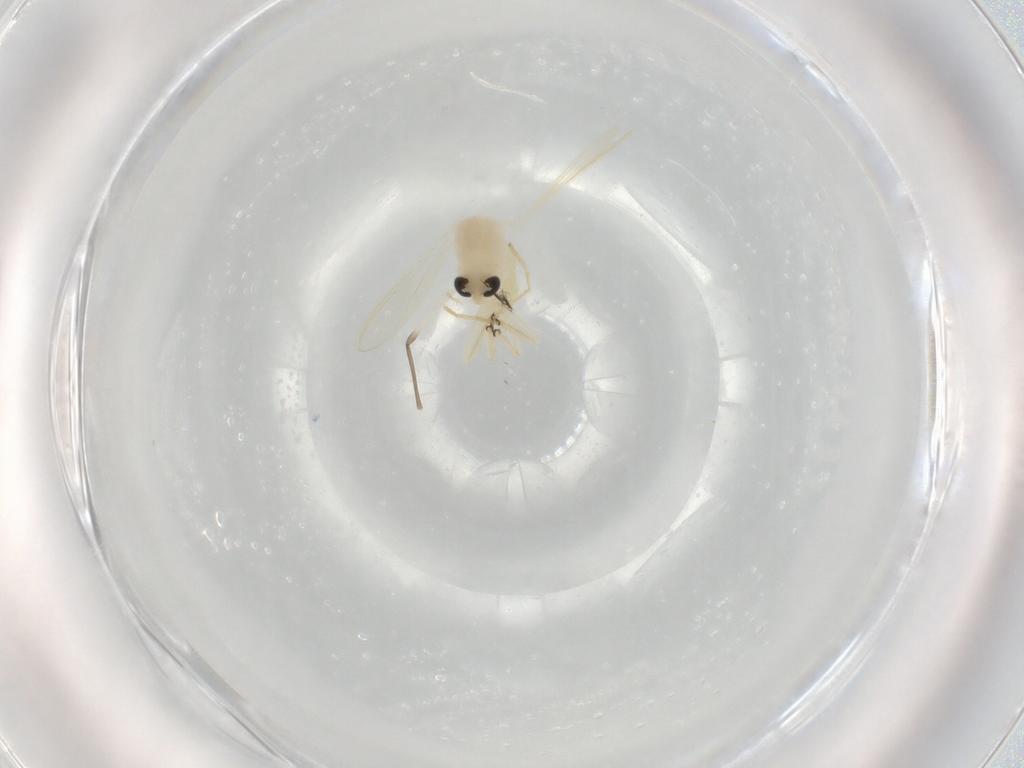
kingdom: Animalia
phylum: Arthropoda
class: Insecta
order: Diptera
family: Chironomidae
